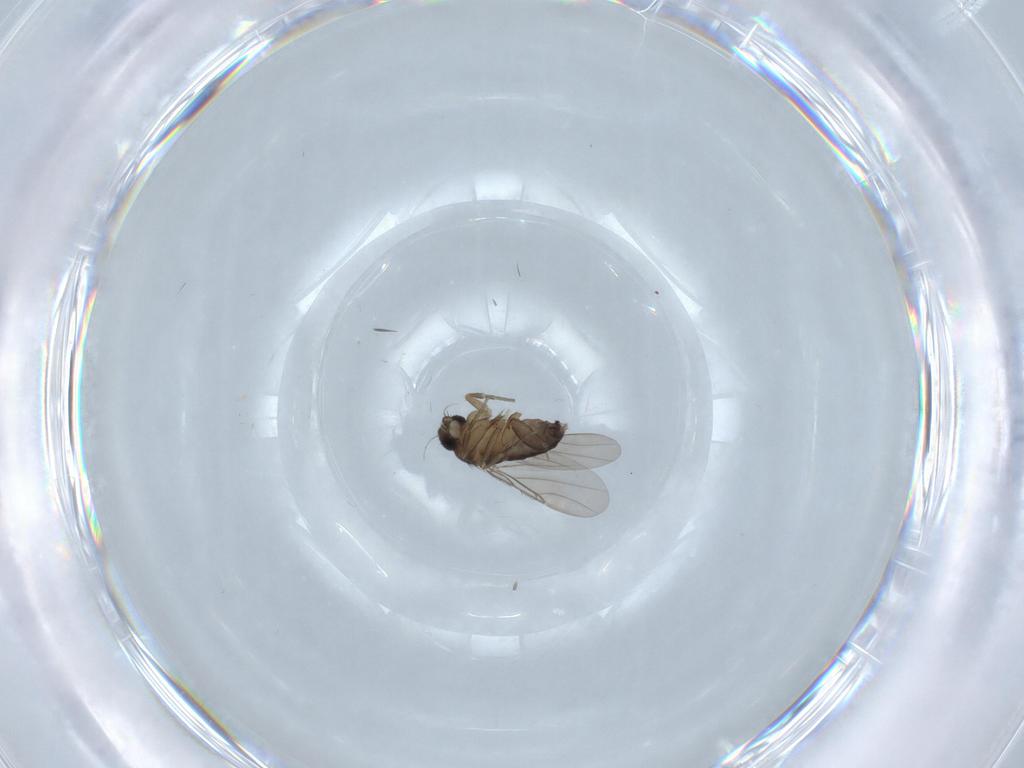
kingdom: Animalia
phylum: Arthropoda
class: Insecta
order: Diptera
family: Phoridae
